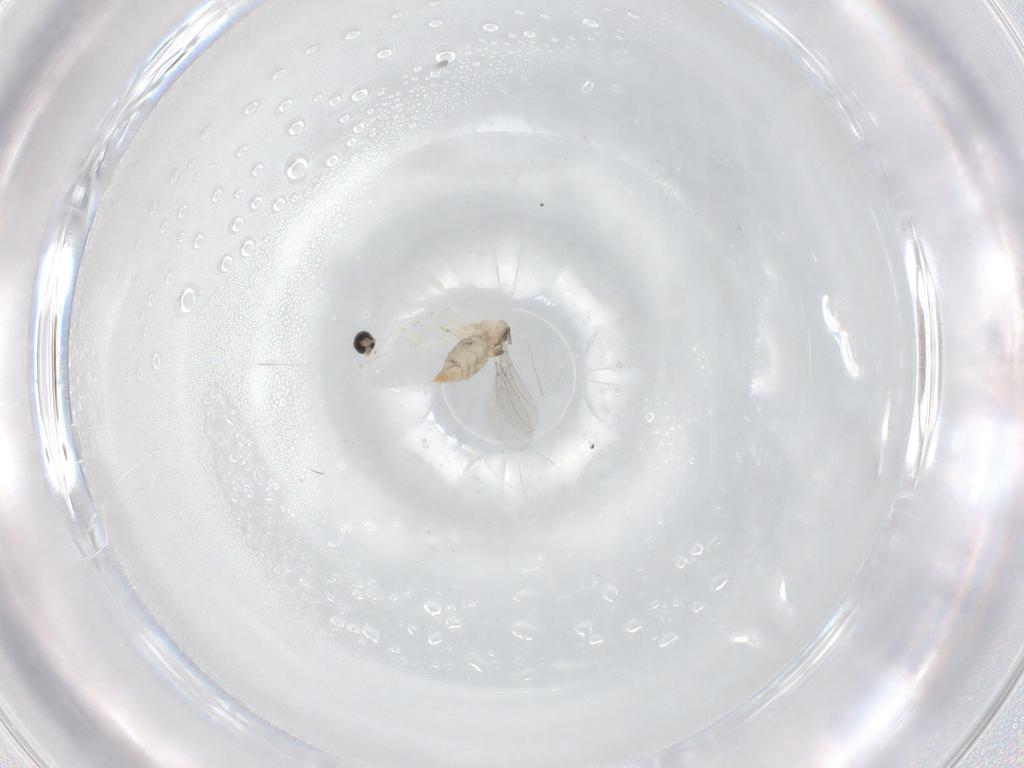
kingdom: Animalia
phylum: Arthropoda
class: Insecta
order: Diptera
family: Cecidomyiidae
